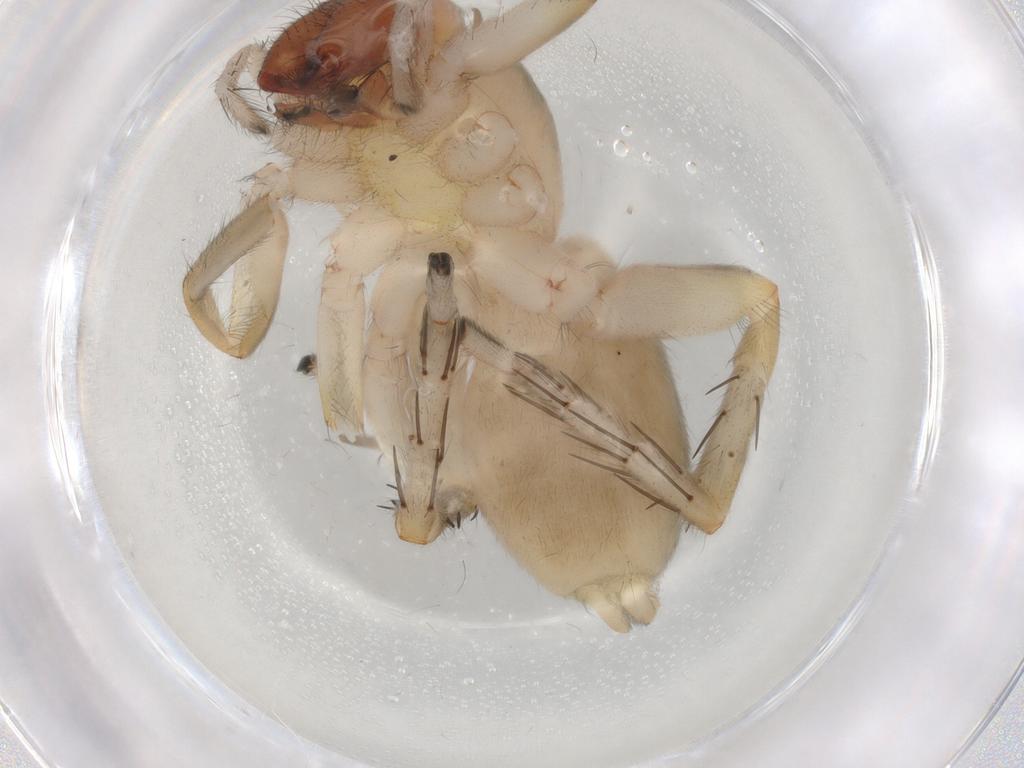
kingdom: Animalia
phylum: Arthropoda
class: Arachnida
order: Araneae
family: Clubionidae
